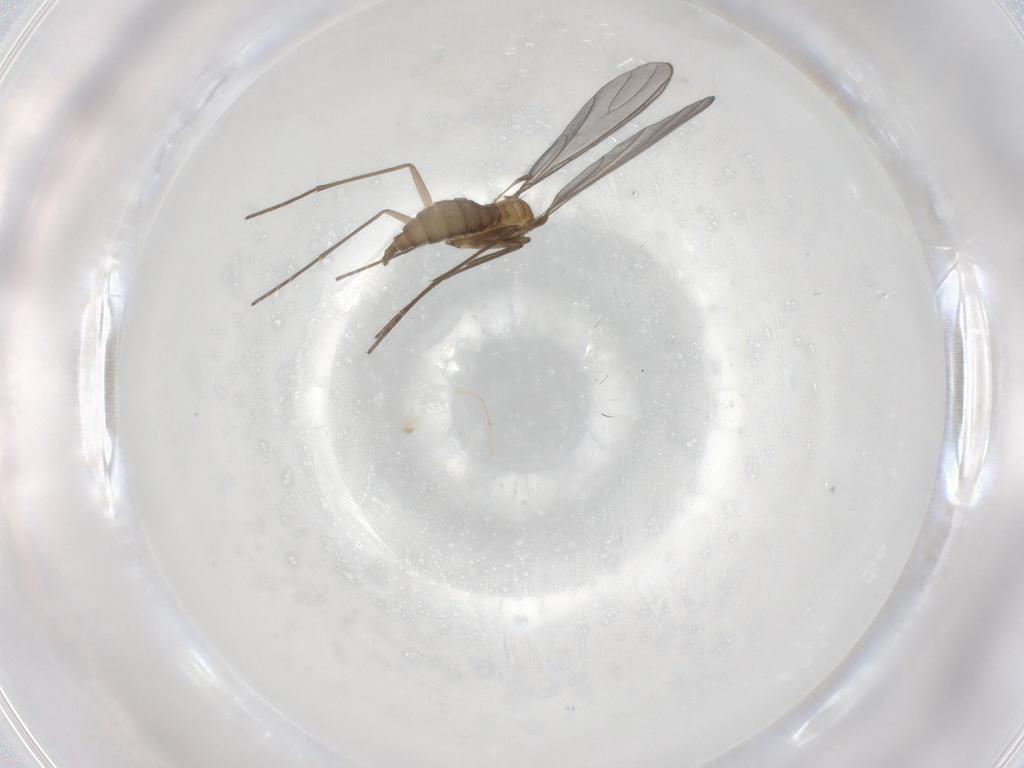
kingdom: Animalia
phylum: Arthropoda
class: Insecta
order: Diptera
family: Sciaridae
